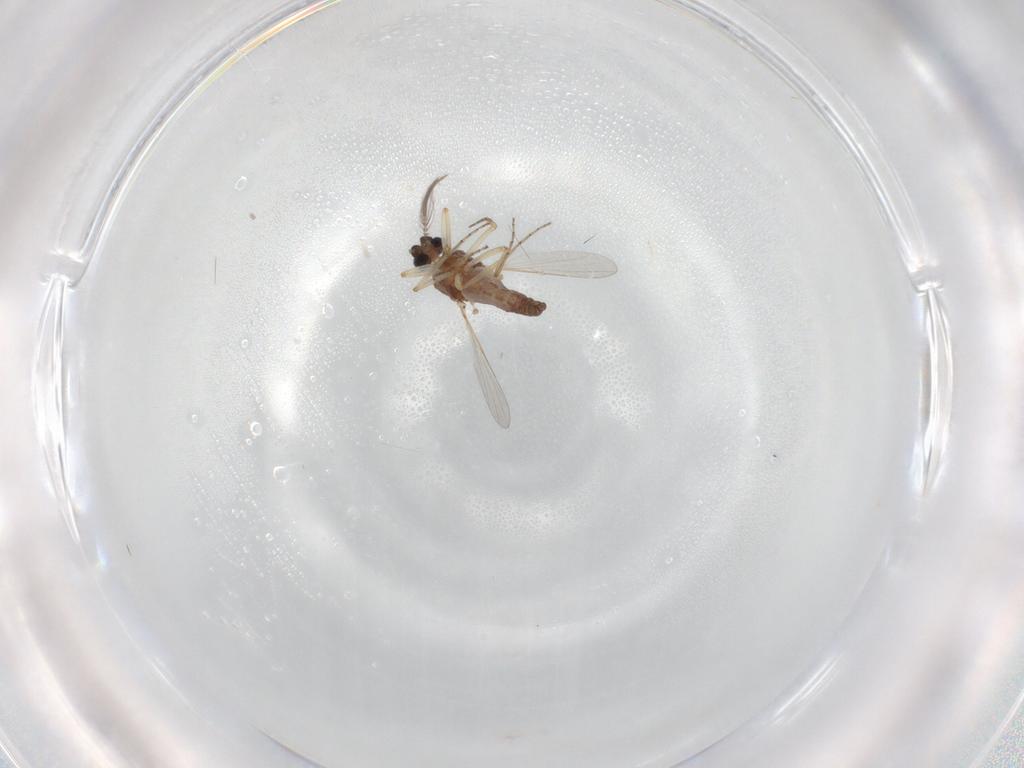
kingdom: Animalia
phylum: Arthropoda
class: Insecta
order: Diptera
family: Ceratopogonidae
